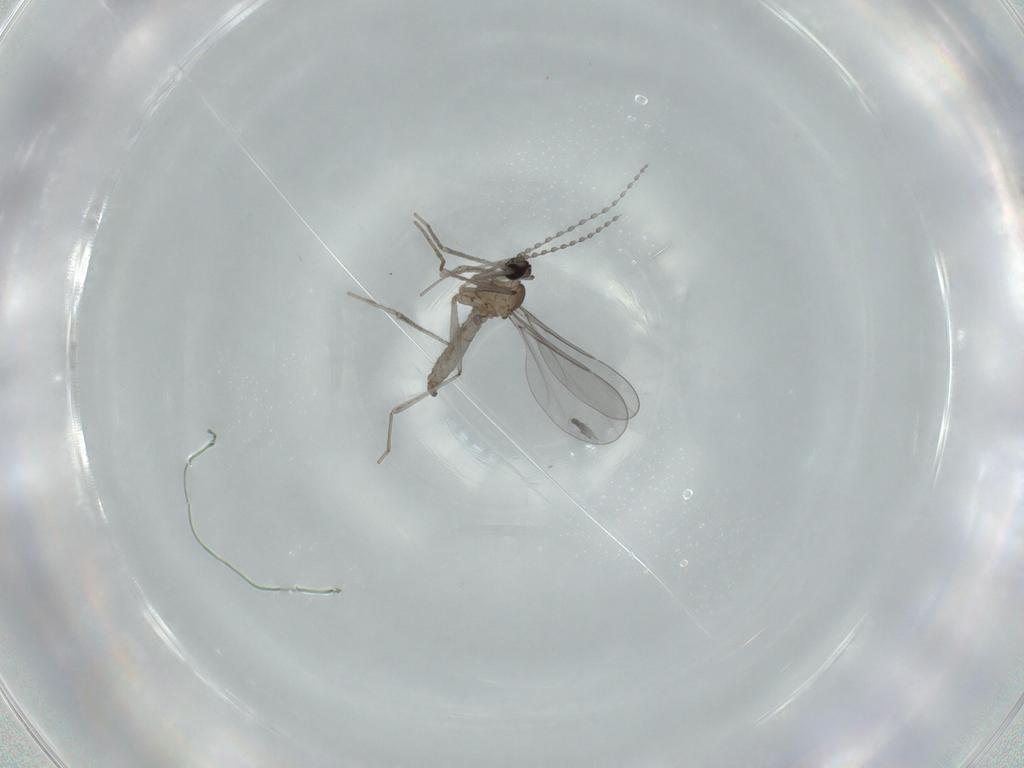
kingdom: Animalia
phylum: Arthropoda
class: Insecta
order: Diptera
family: Cecidomyiidae
